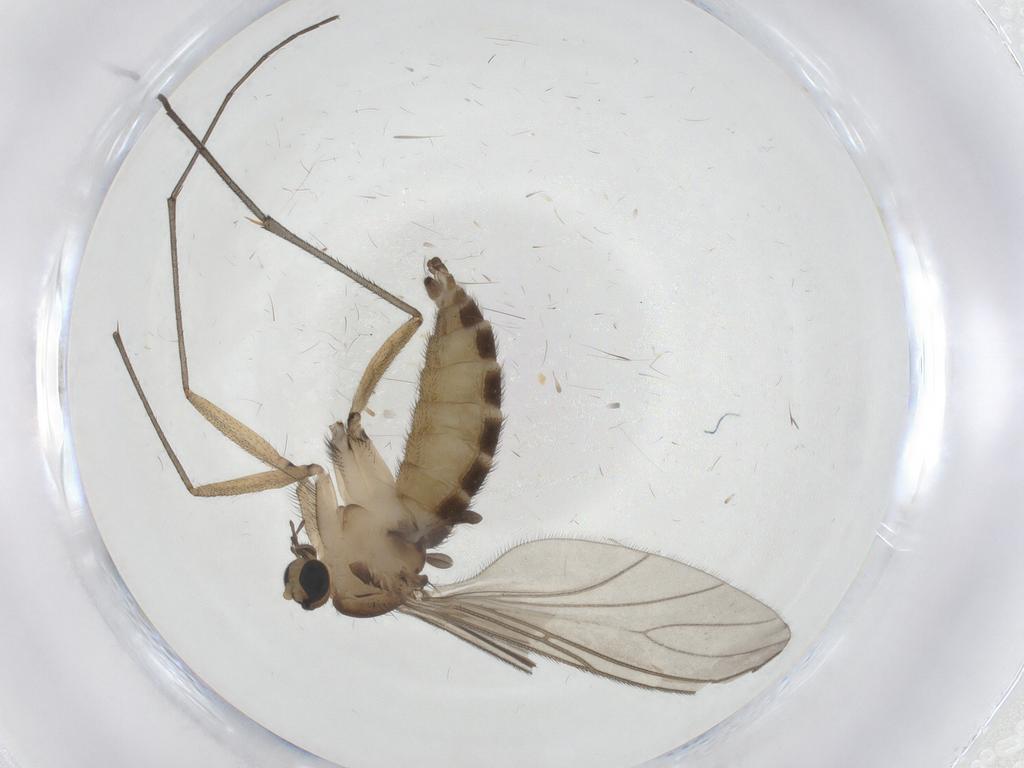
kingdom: Animalia
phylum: Arthropoda
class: Insecta
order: Diptera
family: Sciaridae
